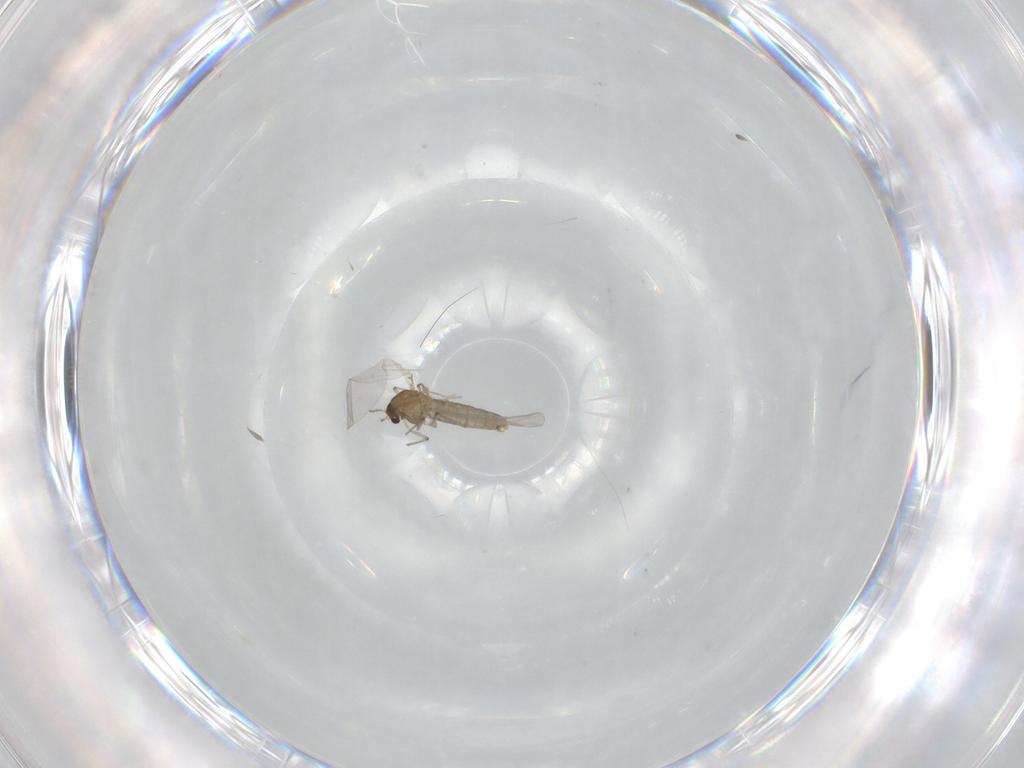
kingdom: Animalia
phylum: Arthropoda
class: Insecta
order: Diptera
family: Chironomidae
